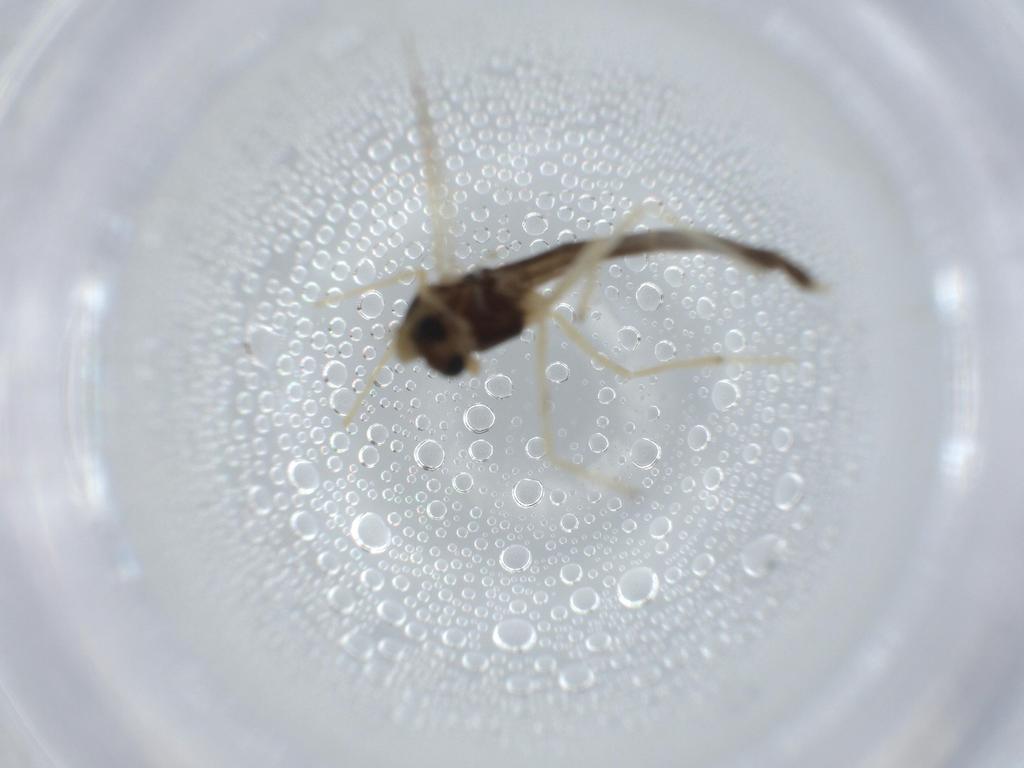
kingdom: Animalia
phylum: Arthropoda
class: Insecta
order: Diptera
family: Chironomidae
